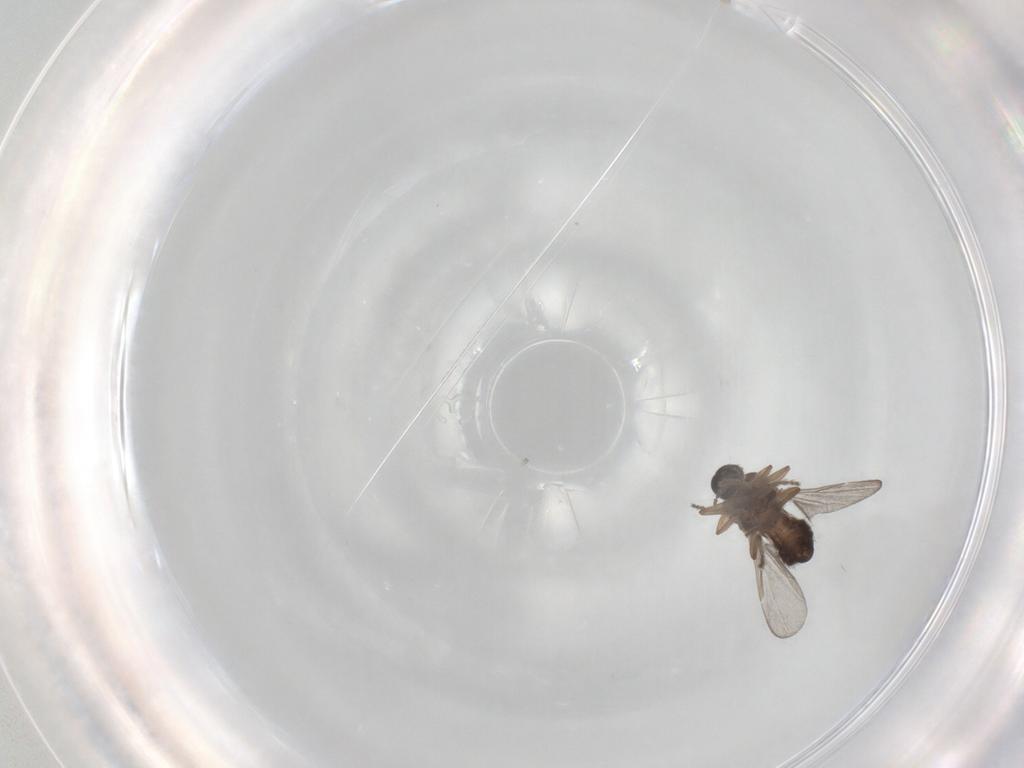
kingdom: Animalia
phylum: Arthropoda
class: Insecta
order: Diptera
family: Ceratopogonidae
